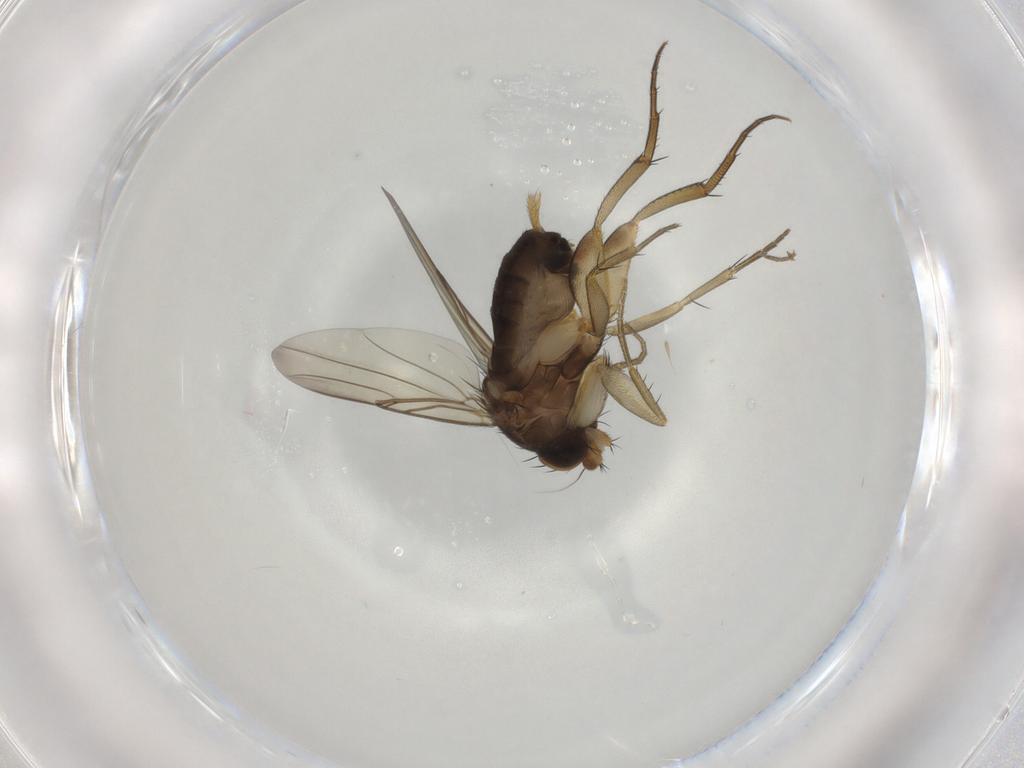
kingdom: Animalia
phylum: Arthropoda
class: Insecta
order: Diptera
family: Phoridae
